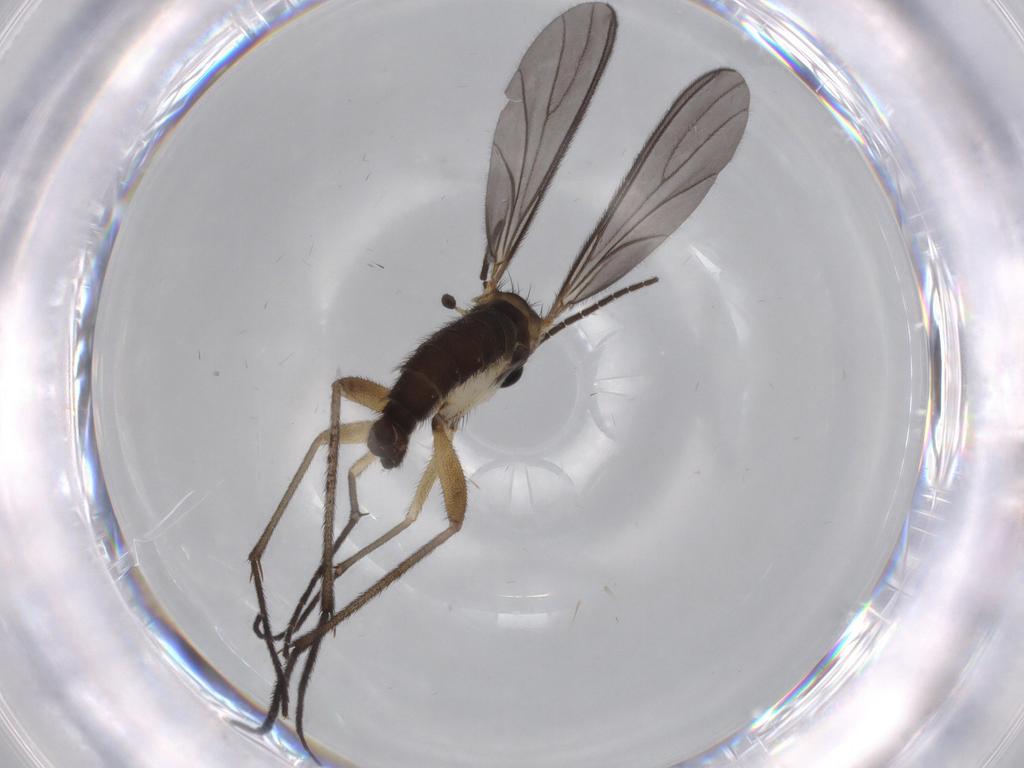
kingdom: Animalia
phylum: Arthropoda
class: Insecta
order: Diptera
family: Sciaridae
